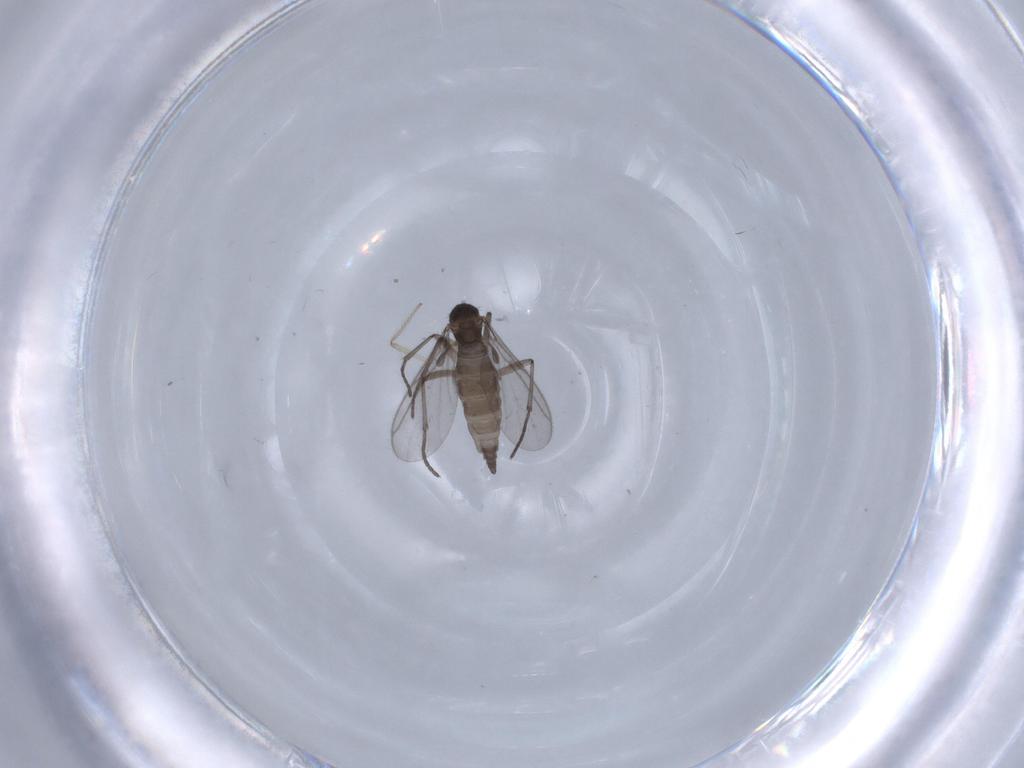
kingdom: Animalia
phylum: Arthropoda
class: Insecta
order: Diptera
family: Chironomidae
